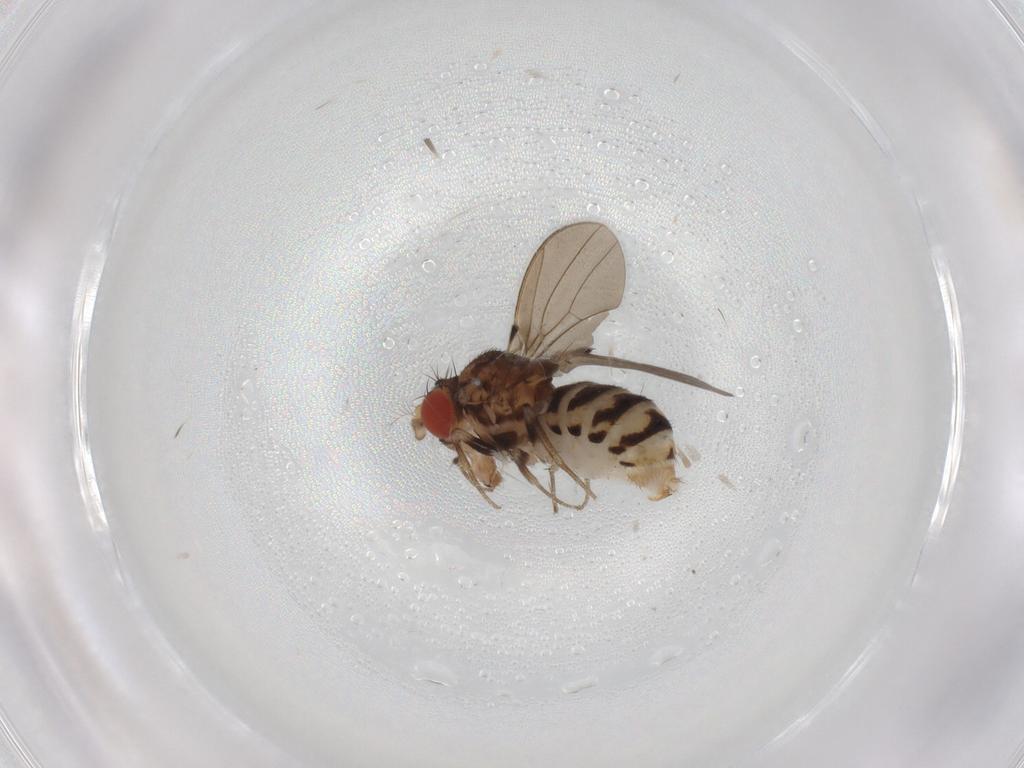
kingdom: Animalia
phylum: Arthropoda
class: Insecta
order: Diptera
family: Drosophilidae
